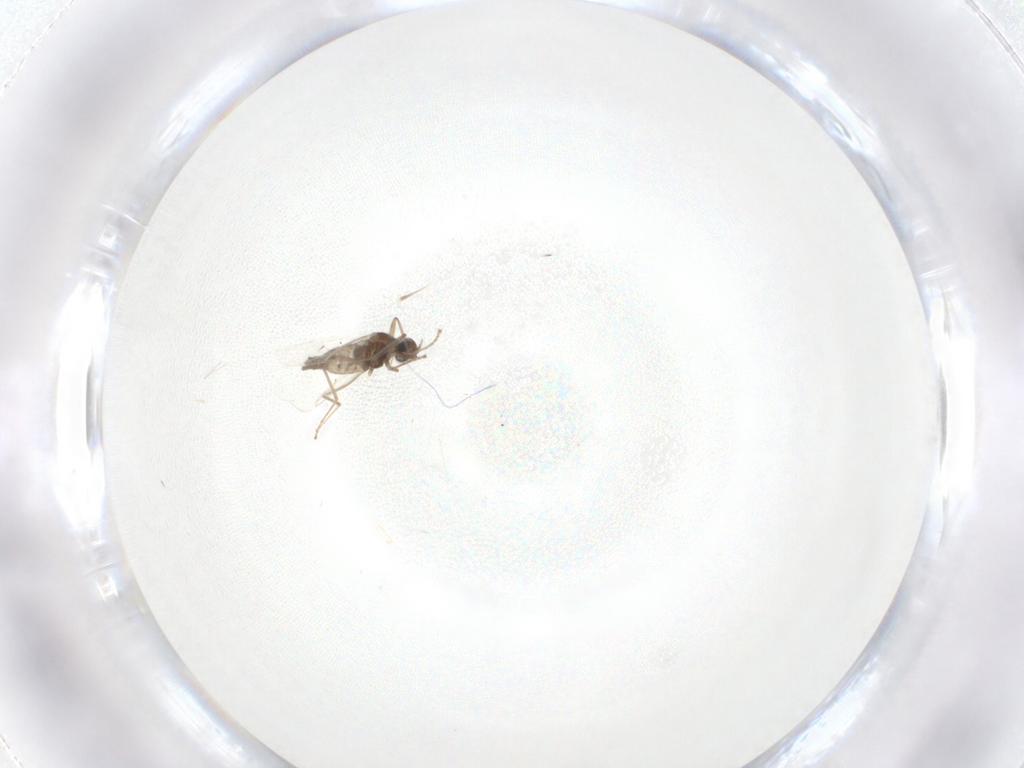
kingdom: Animalia
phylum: Arthropoda
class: Insecta
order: Diptera
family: Cecidomyiidae
